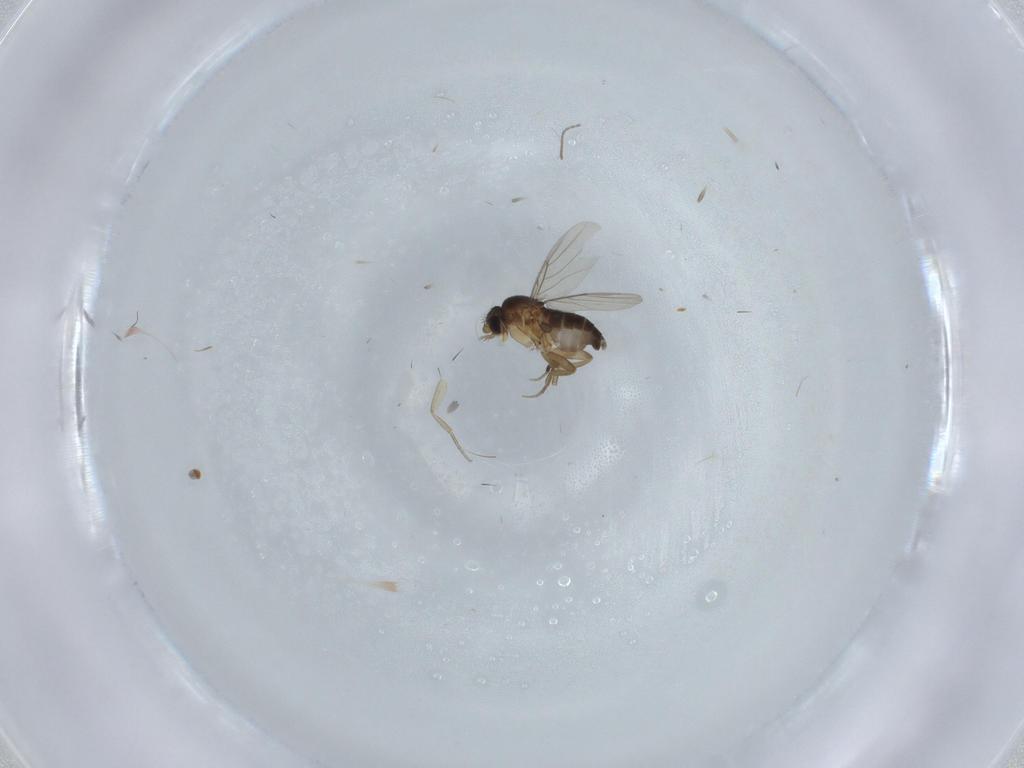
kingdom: Animalia
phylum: Arthropoda
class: Insecta
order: Diptera
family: Phoridae
